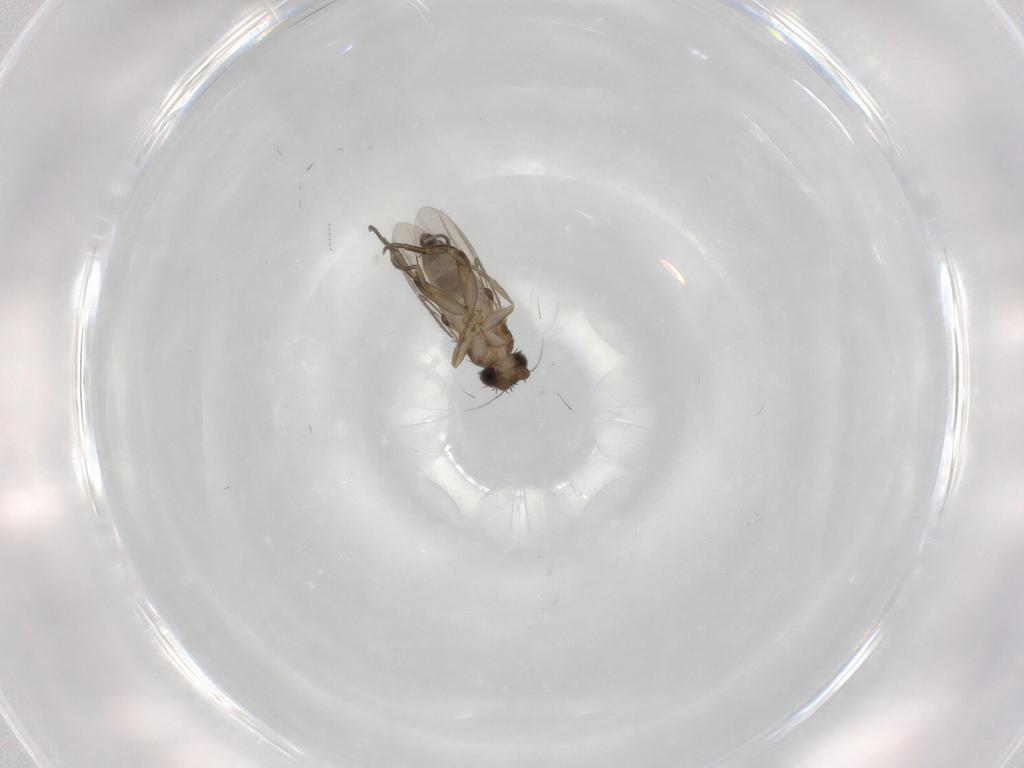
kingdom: Animalia
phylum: Arthropoda
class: Insecta
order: Diptera
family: Phoridae
